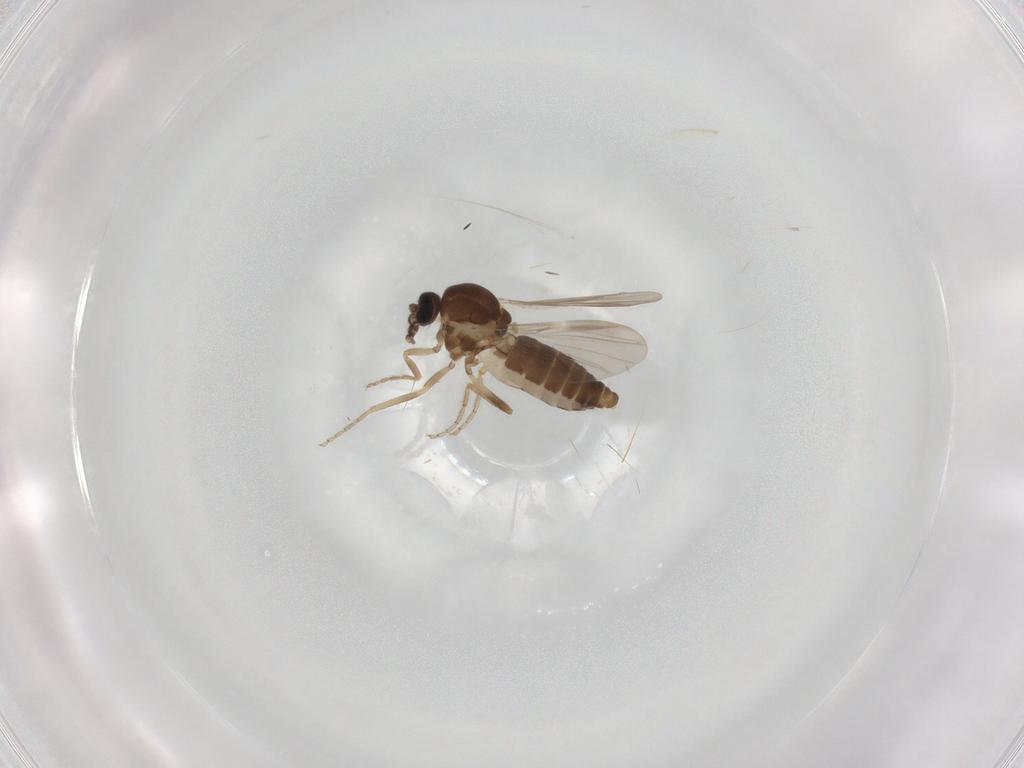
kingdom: Animalia
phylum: Arthropoda
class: Insecta
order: Diptera
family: Ceratopogonidae
